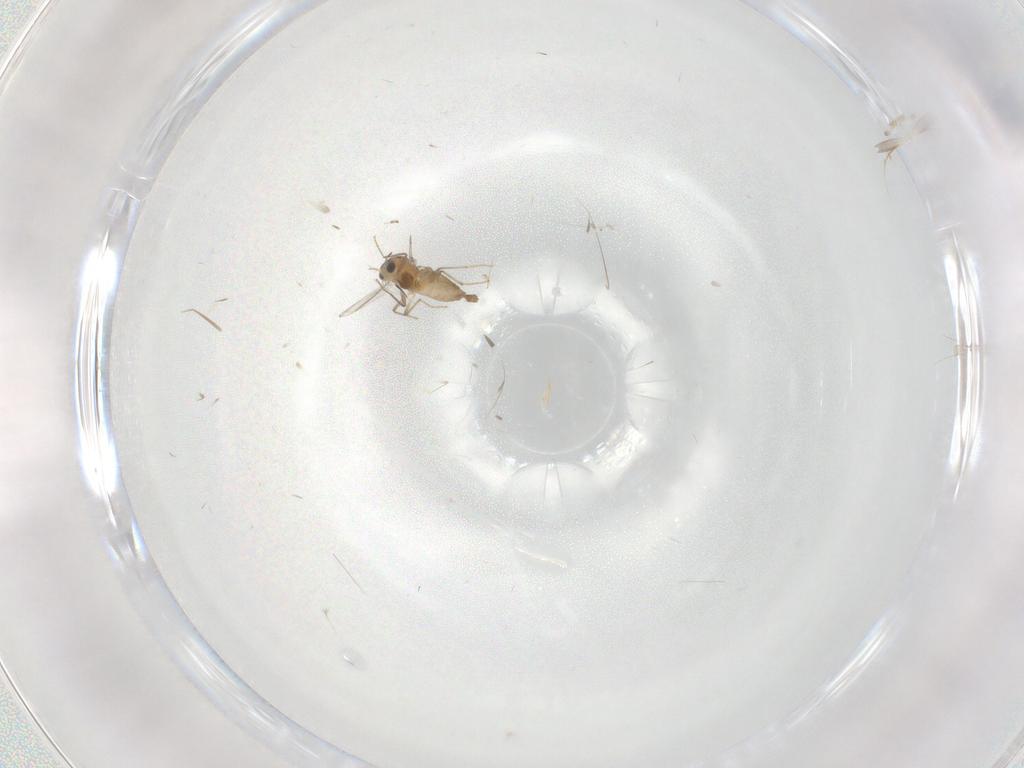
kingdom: Animalia
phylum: Arthropoda
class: Insecta
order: Diptera
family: Chironomidae
